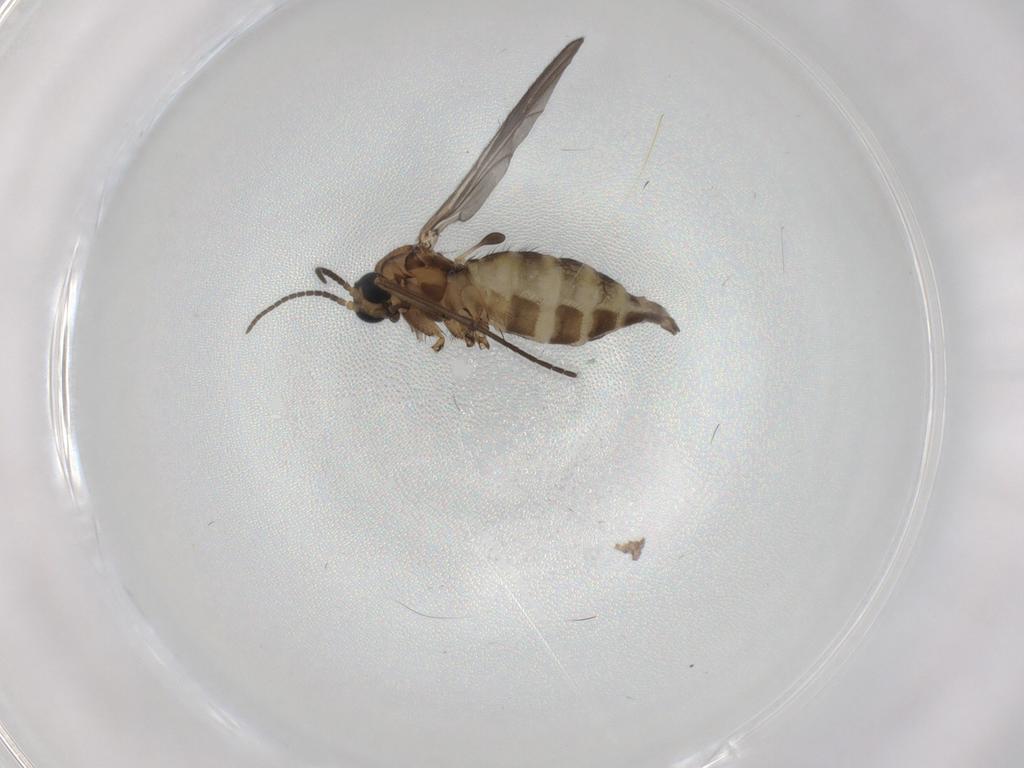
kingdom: Animalia
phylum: Arthropoda
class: Insecta
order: Diptera
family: Sciaridae
